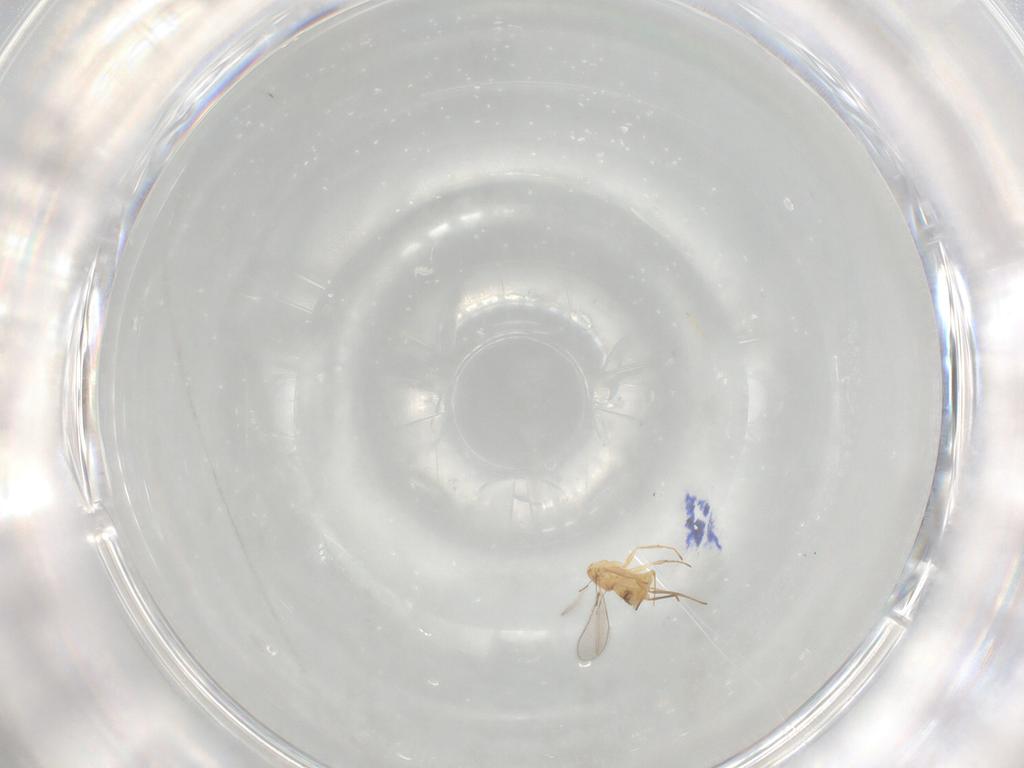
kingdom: Animalia
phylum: Arthropoda
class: Insecta
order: Hymenoptera
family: Mymaridae
